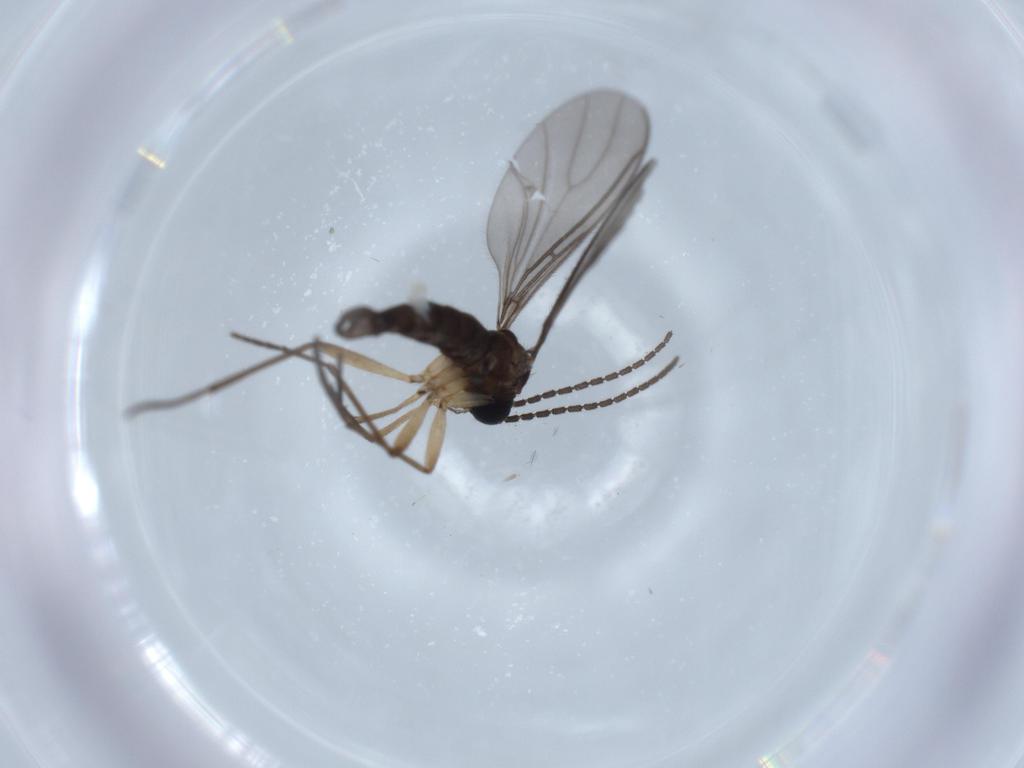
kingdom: Animalia
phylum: Arthropoda
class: Insecta
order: Diptera
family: Sciaridae
